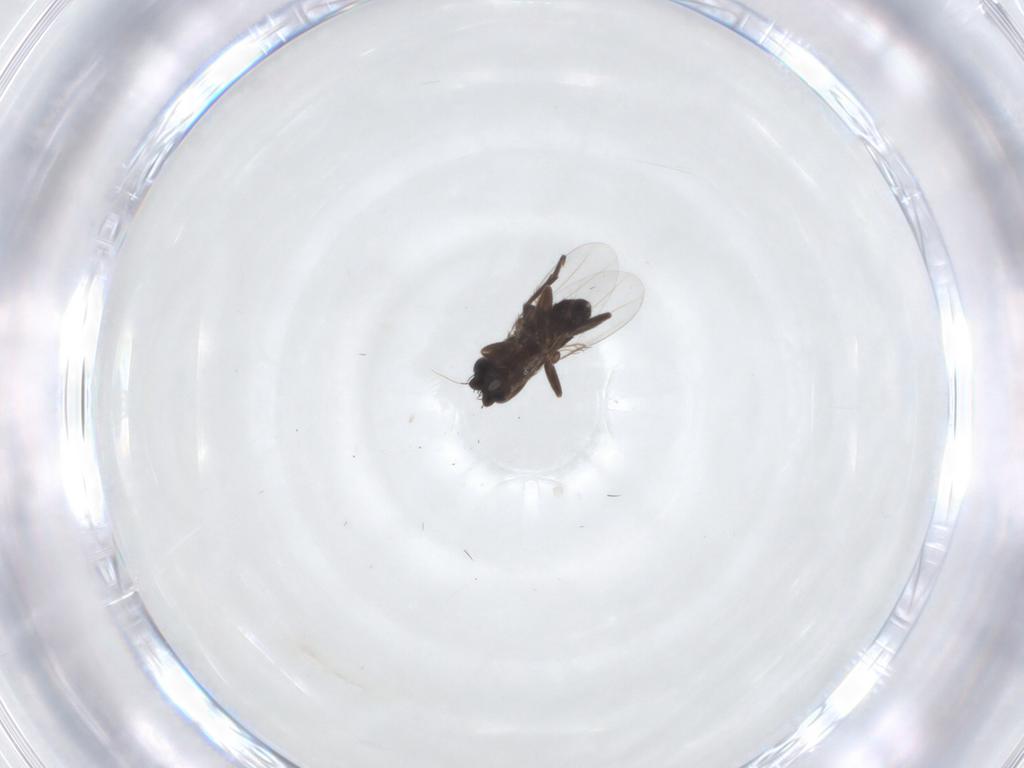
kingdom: Animalia
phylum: Arthropoda
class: Insecta
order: Diptera
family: Phoridae
